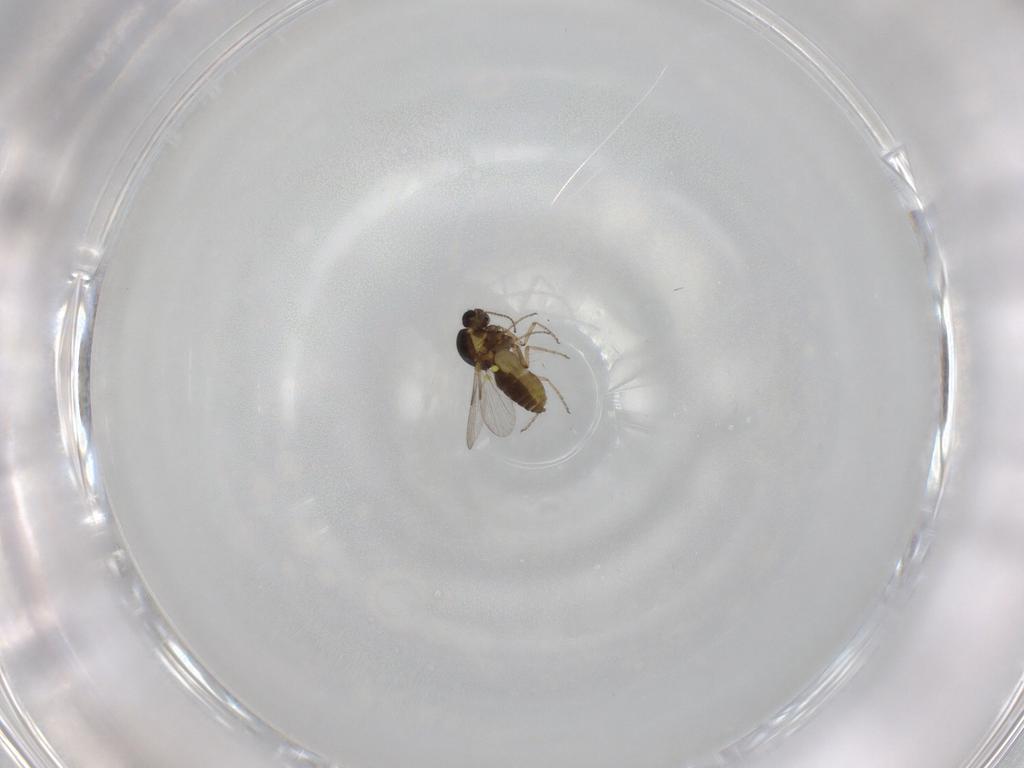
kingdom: Animalia
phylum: Arthropoda
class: Insecta
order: Diptera
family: Ceratopogonidae
